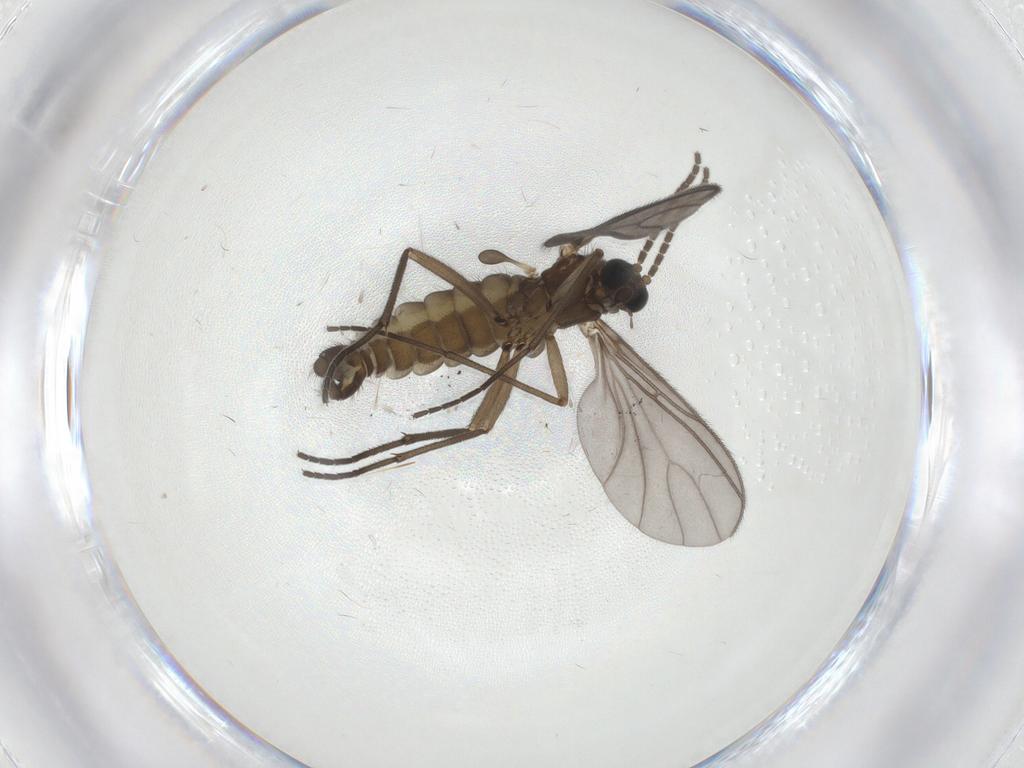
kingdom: Animalia
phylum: Arthropoda
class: Insecta
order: Diptera
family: Sciaridae
